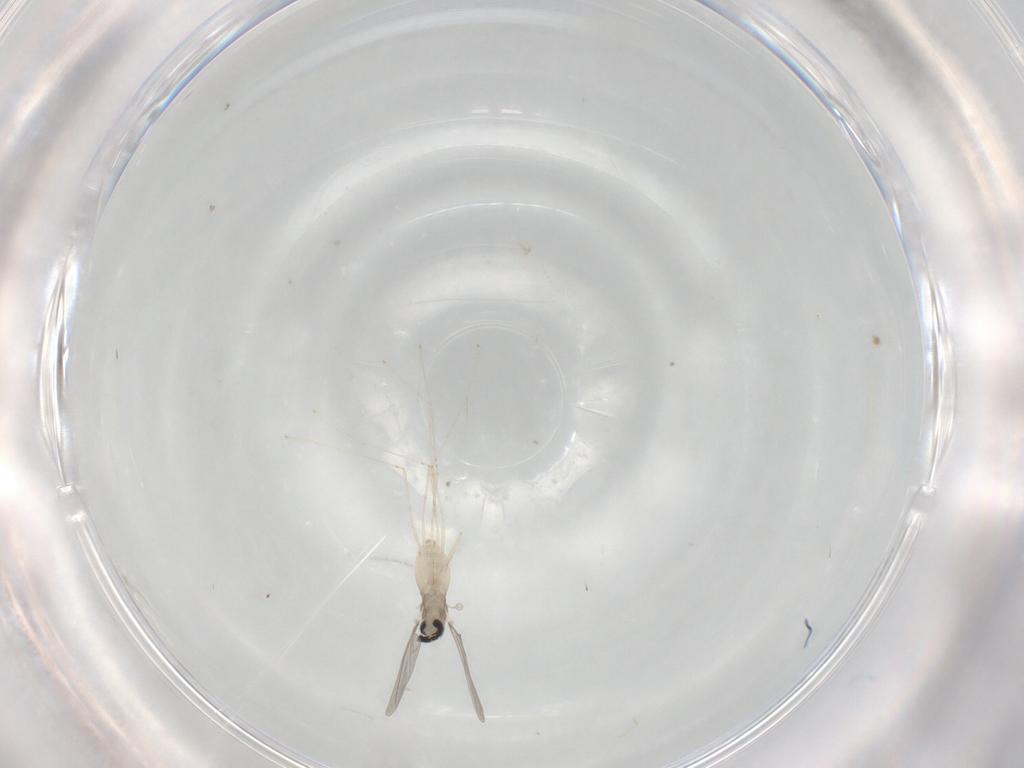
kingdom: Animalia
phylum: Arthropoda
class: Insecta
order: Diptera
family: Cecidomyiidae
